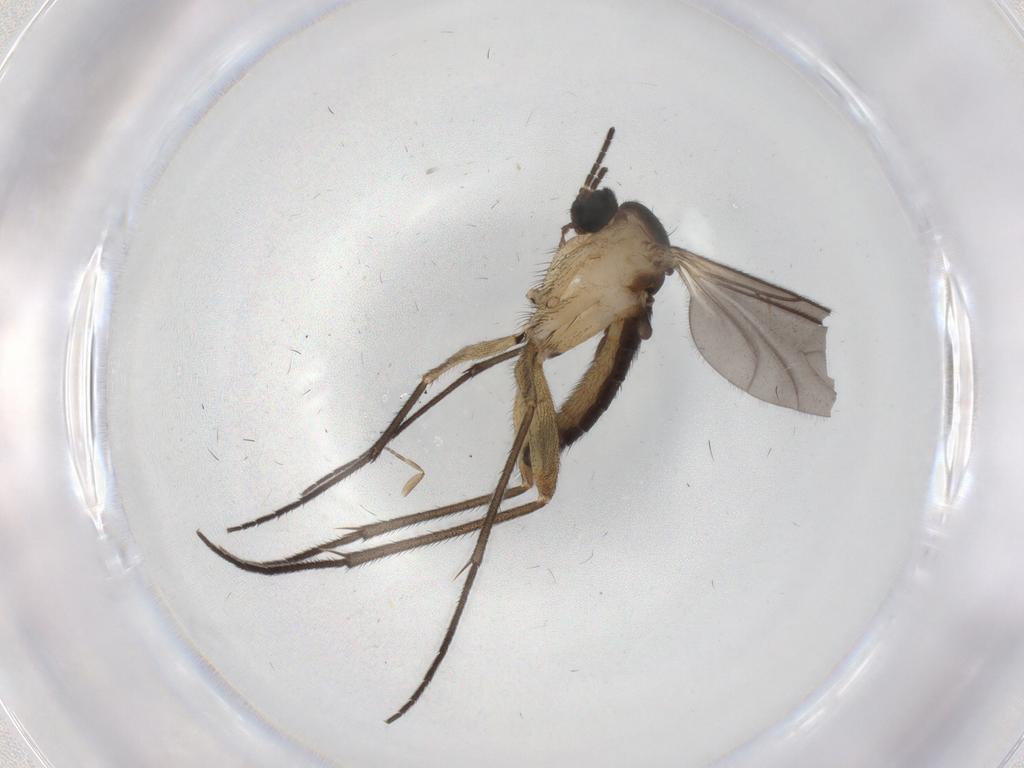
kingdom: Animalia
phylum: Arthropoda
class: Insecta
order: Diptera
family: Sciaridae
